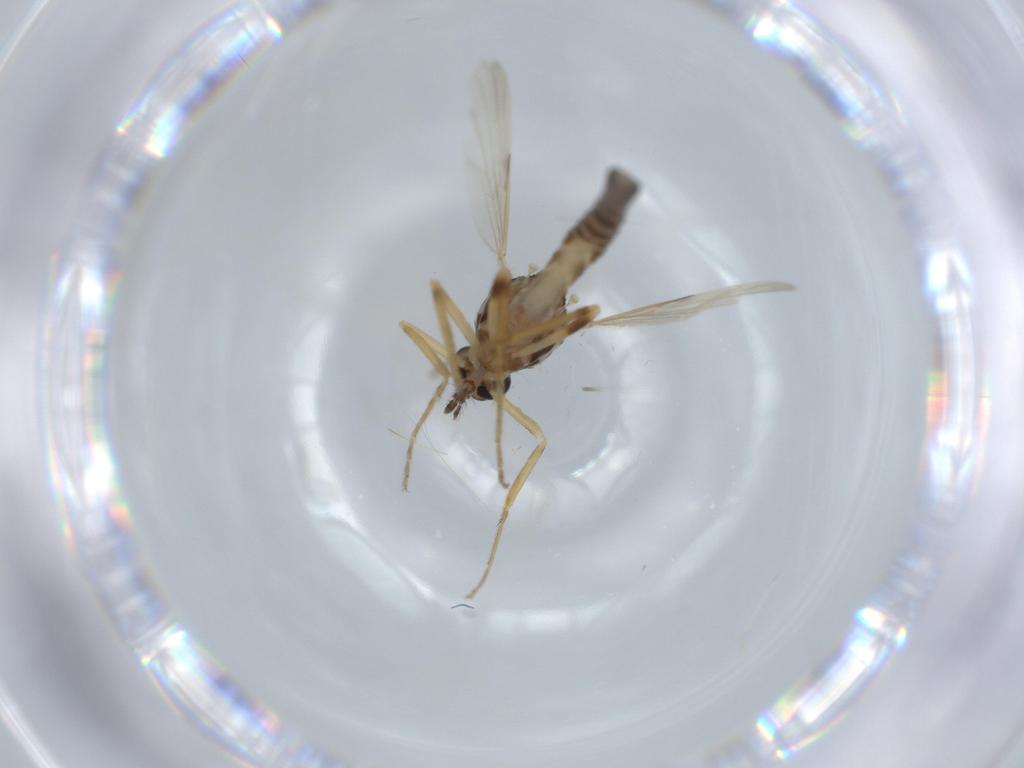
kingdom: Animalia
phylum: Arthropoda
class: Insecta
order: Diptera
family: Ceratopogonidae
